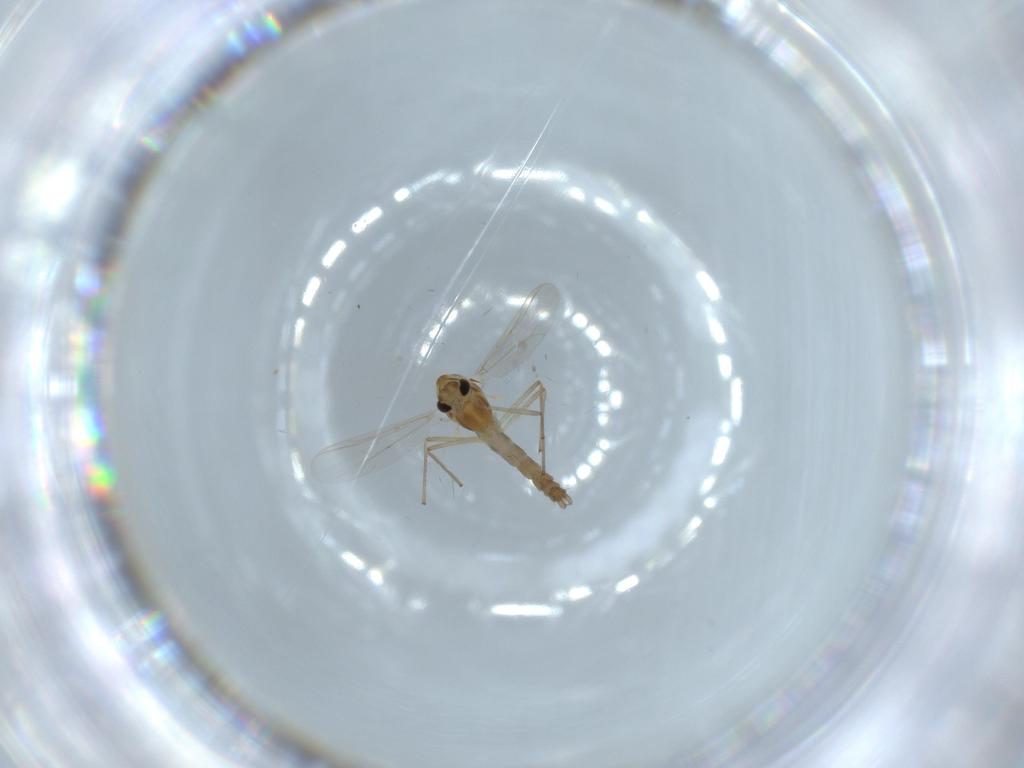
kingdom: Animalia
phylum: Arthropoda
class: Insecta
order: Diptera
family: Chironomidae
